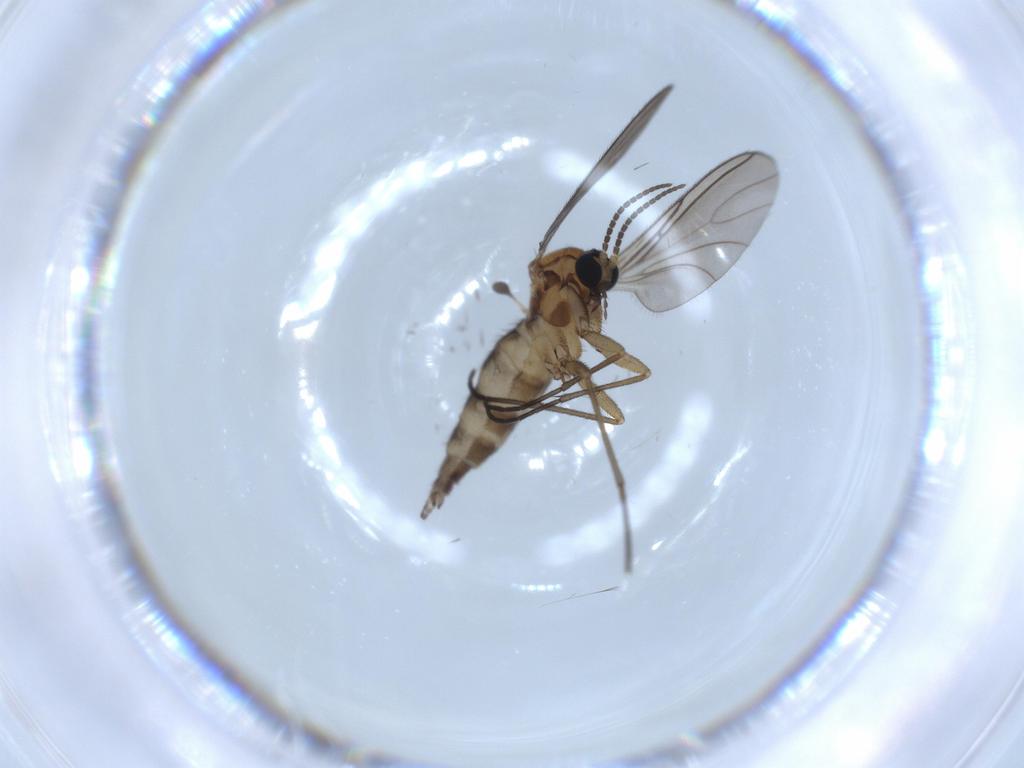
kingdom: Animalia
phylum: Arthropoda
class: Insecta
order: Diptera
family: Sciaridae
